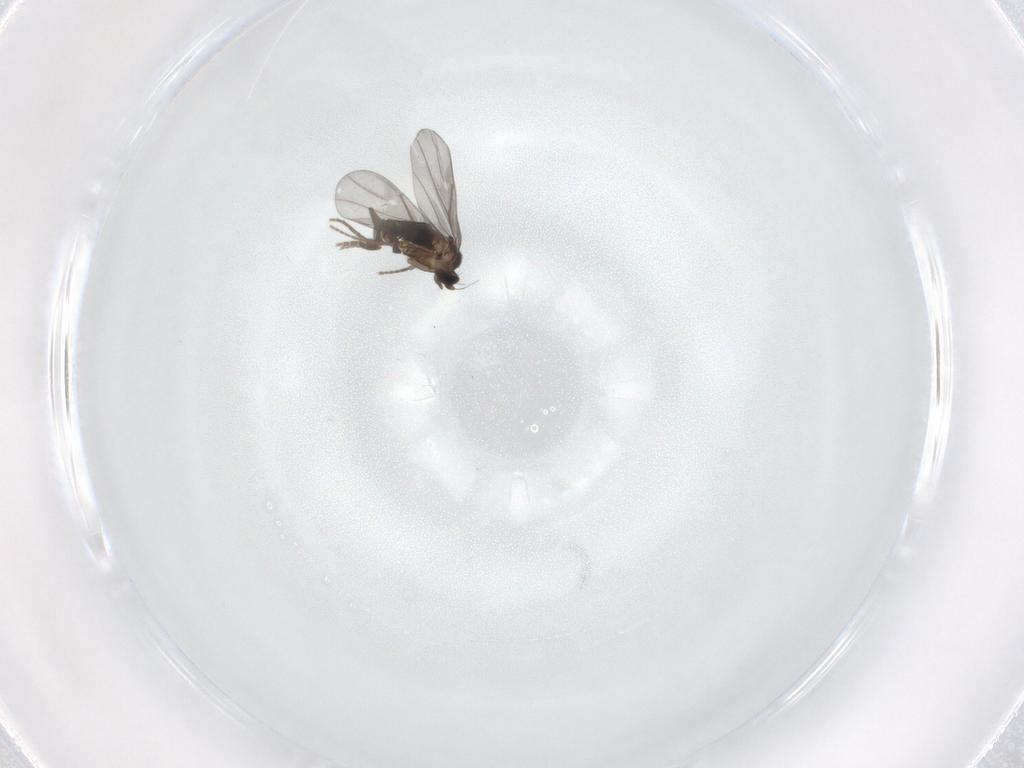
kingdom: Animalia
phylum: Arthropoda
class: Insecta
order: Diptera
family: Phoridae
